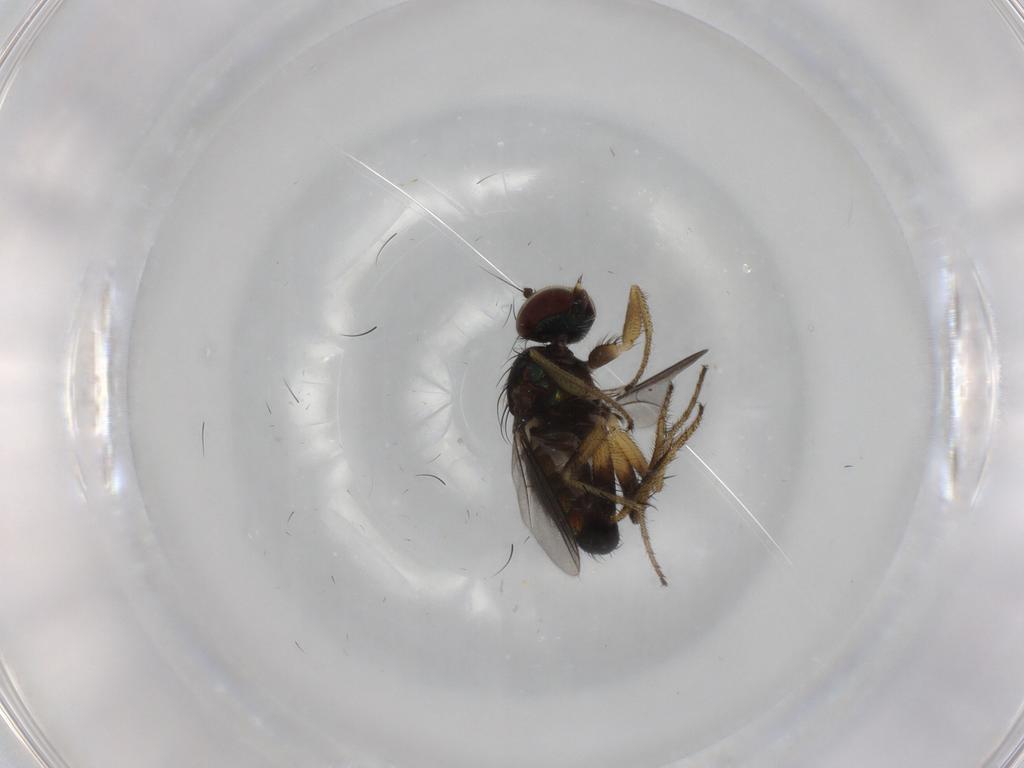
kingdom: Animalia
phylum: Arthropoda
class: Insecta
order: Diptera
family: Dolichopodidae
